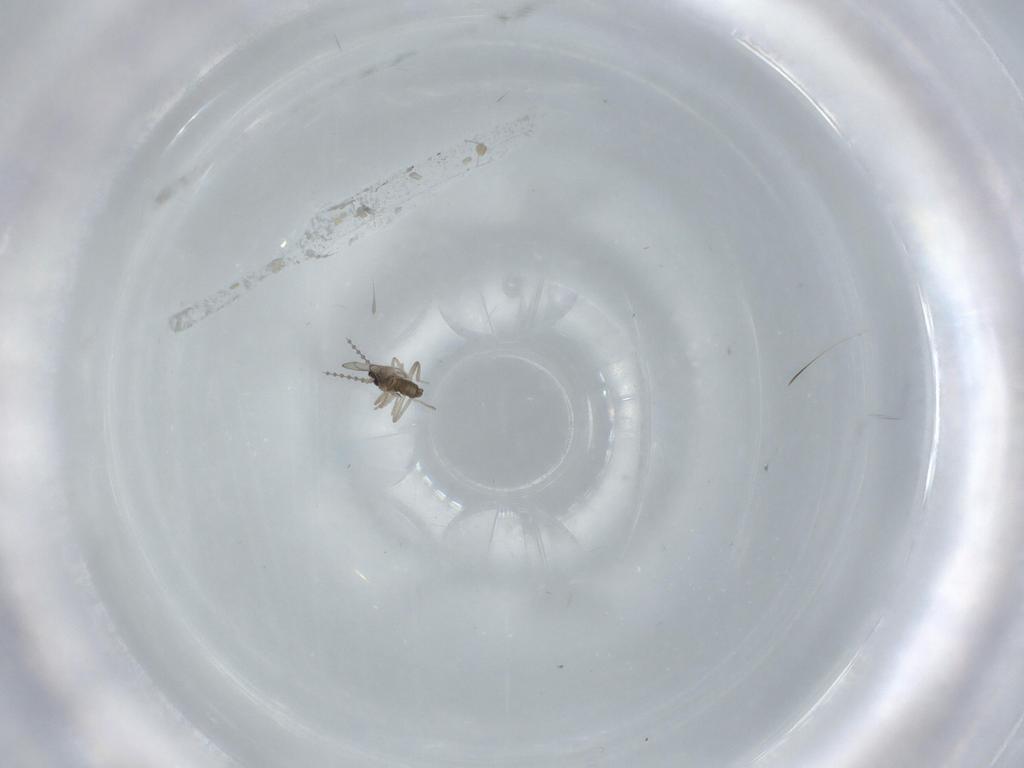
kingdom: Animalia
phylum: Arthropoda
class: Insecta
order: Diptera
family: Cecidomyiidae
